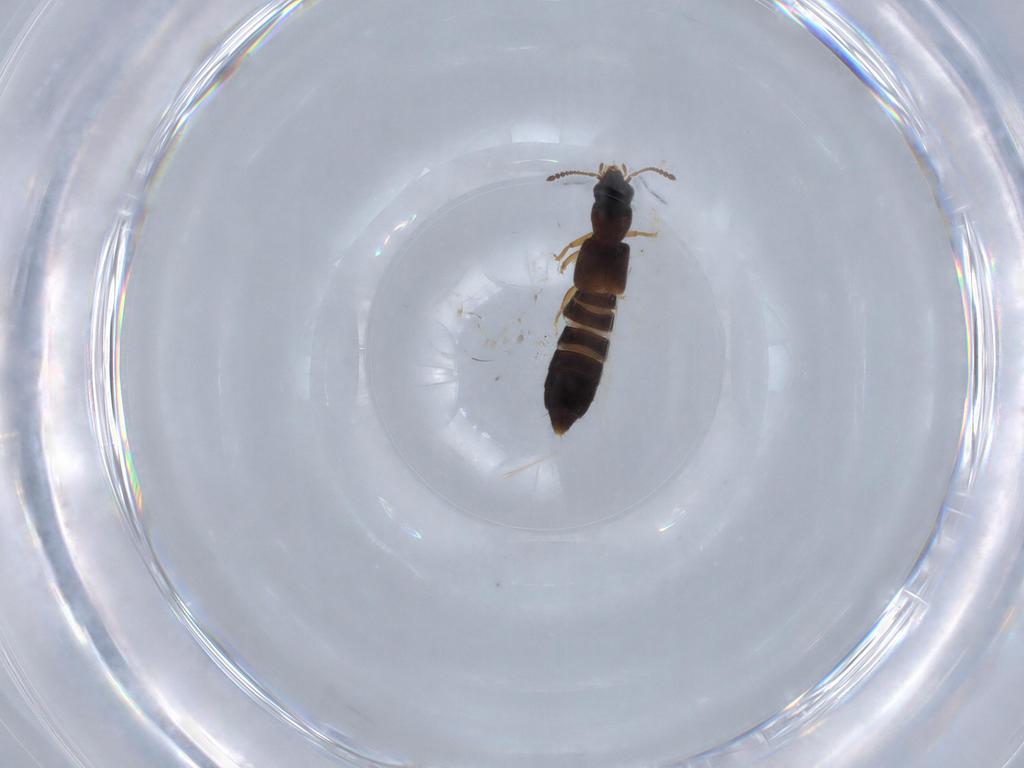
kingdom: Animalia
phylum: Arthropoda
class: Insecta
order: Coleoptera
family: Staphylinidae
